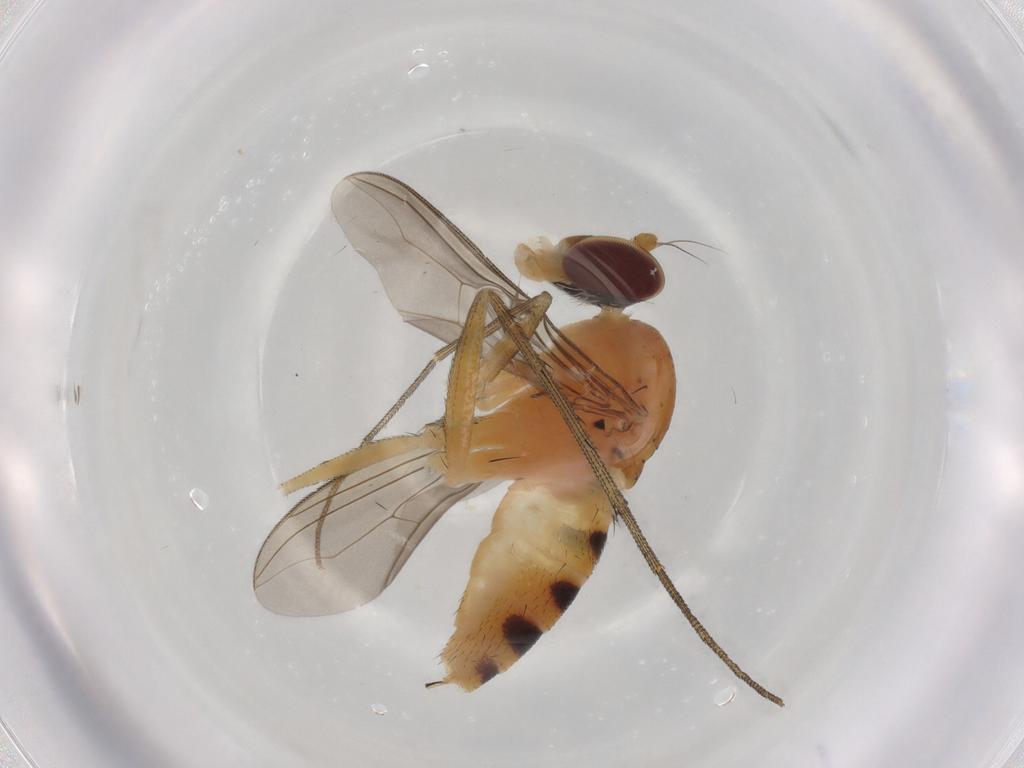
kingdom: Animalia
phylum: Arthropoda
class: Insecta
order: Diptera
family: Dolichopodidae
